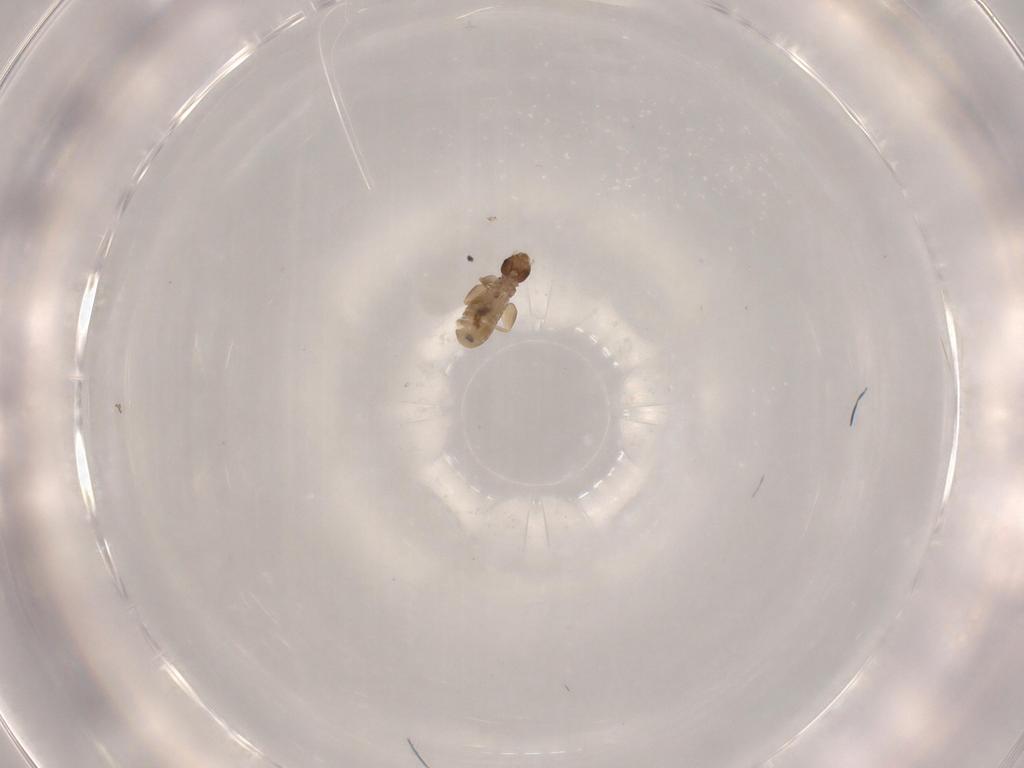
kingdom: Animalia
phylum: Arthropoda
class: Insecta
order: Psocodea
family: Liposcelididae
